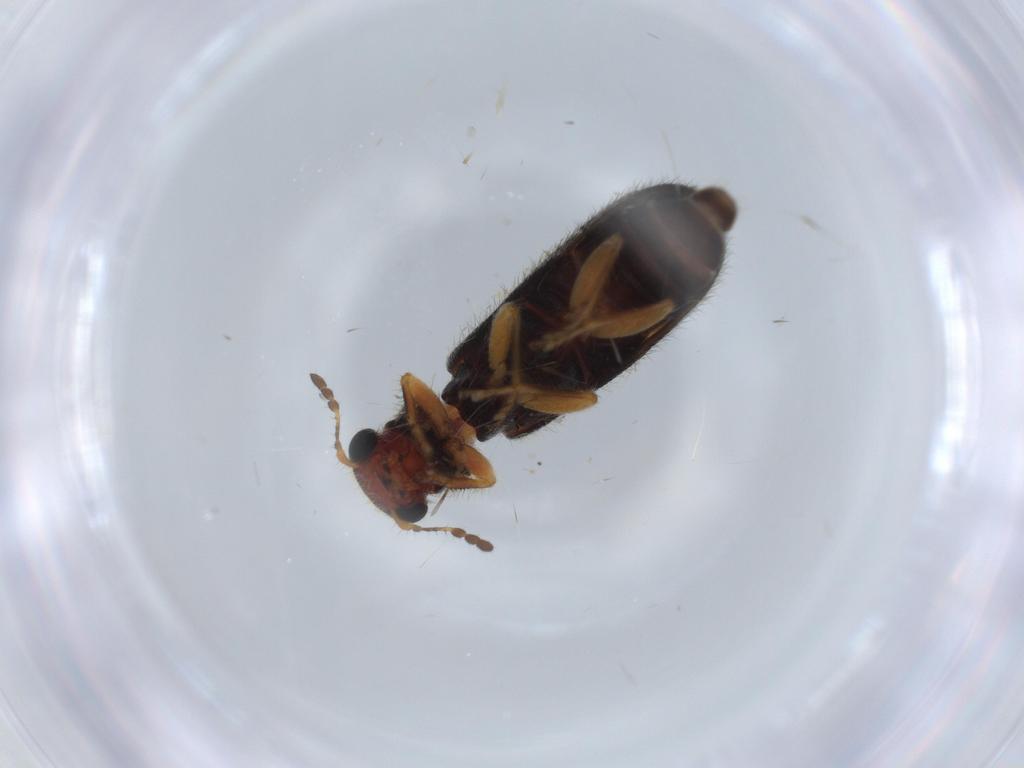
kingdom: Animalia
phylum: Arthropoda
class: Insecta
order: Coleoptera
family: Cleridae
